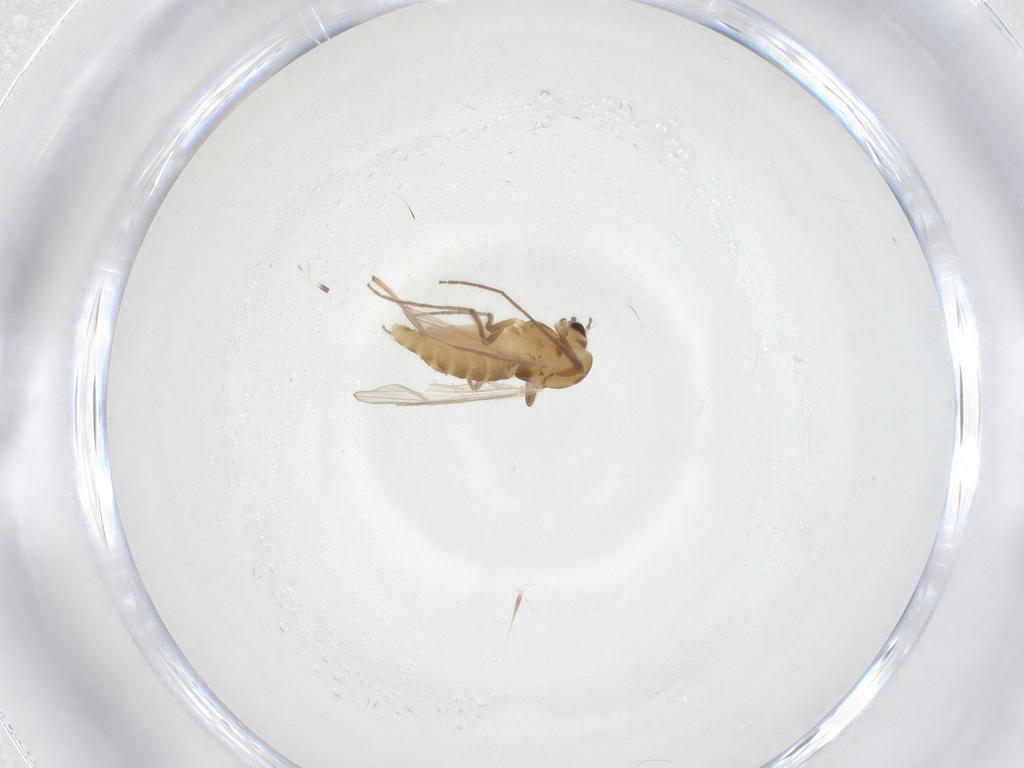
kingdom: Animalia
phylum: Arthropoda
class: Insecta
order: Diptera
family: Chironomidae
